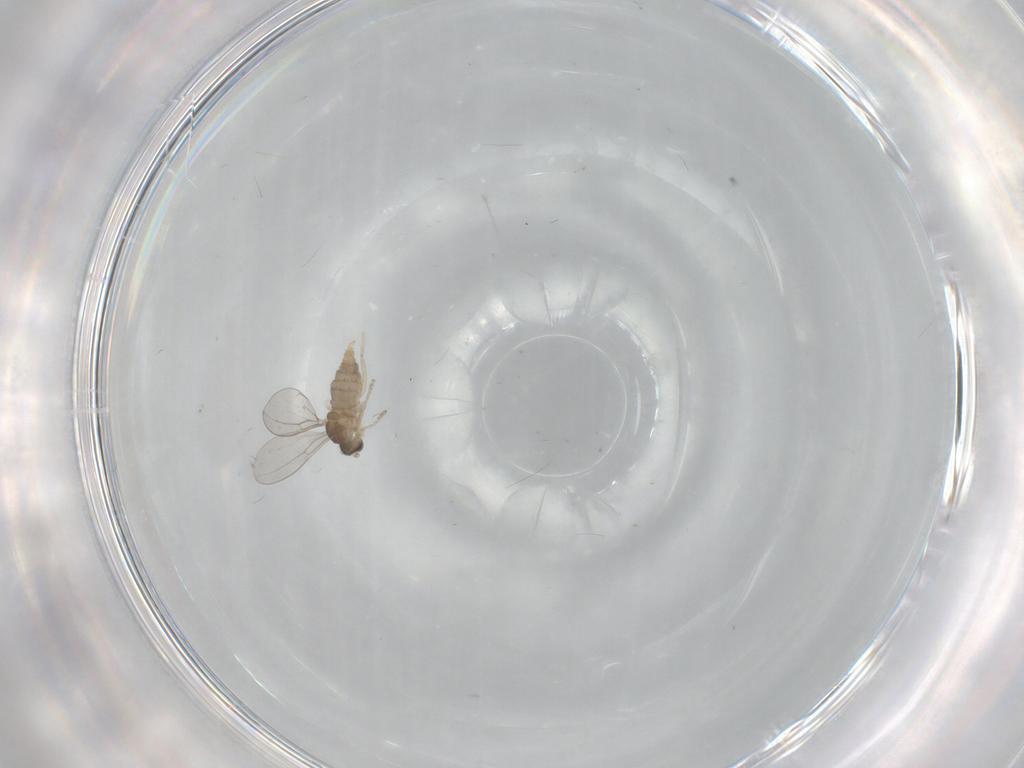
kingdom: Animalia
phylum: Arthropoda
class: Insecta
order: Diptera
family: Cecidomyiidae
